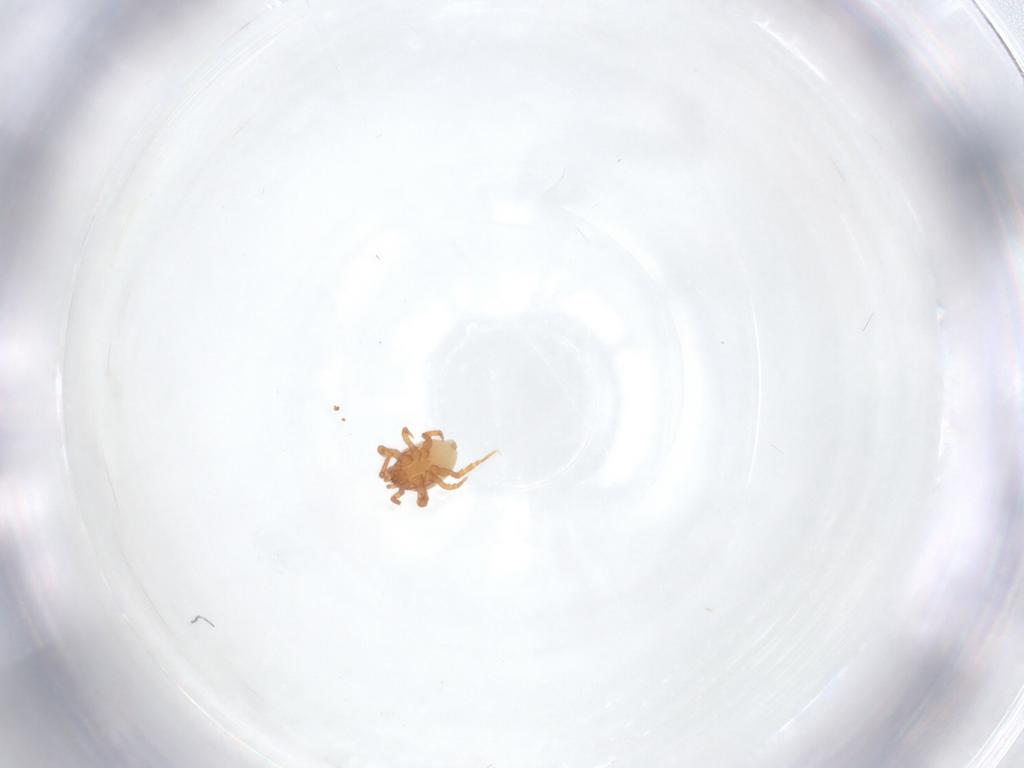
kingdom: Animalia
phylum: Arthropoda
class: Arachnida
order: Mesostigmata
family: Parasitidae
